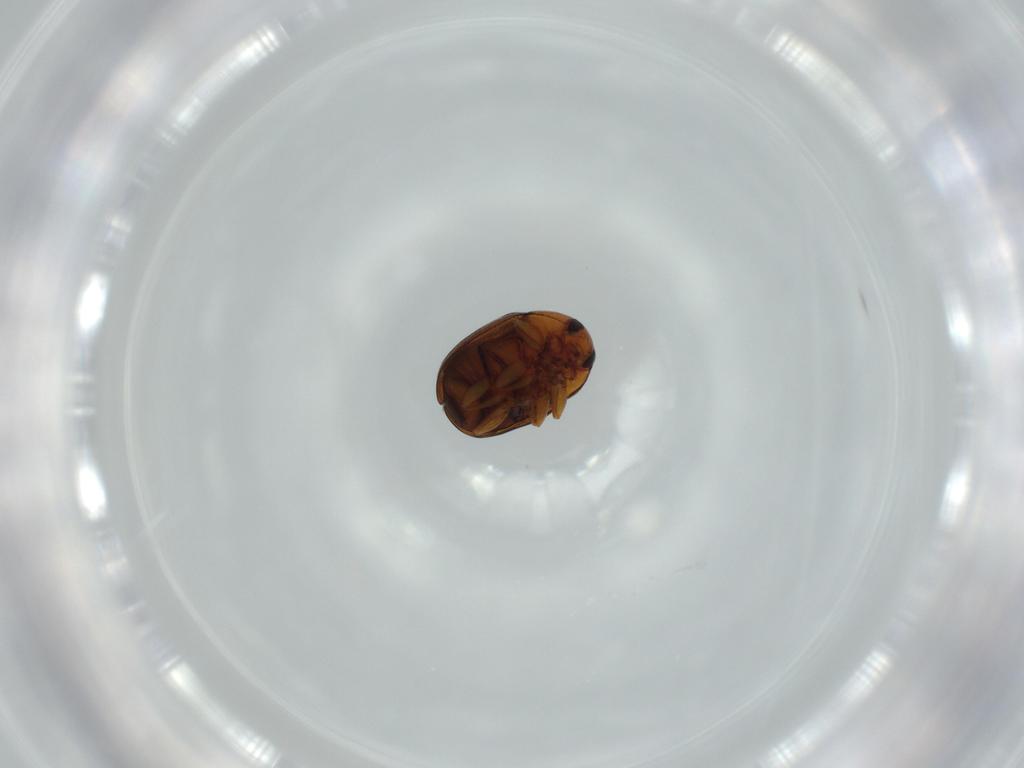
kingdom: Animalia
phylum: Arthropoda
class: Insecta
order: Coleoptera
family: Chrysomelidae
